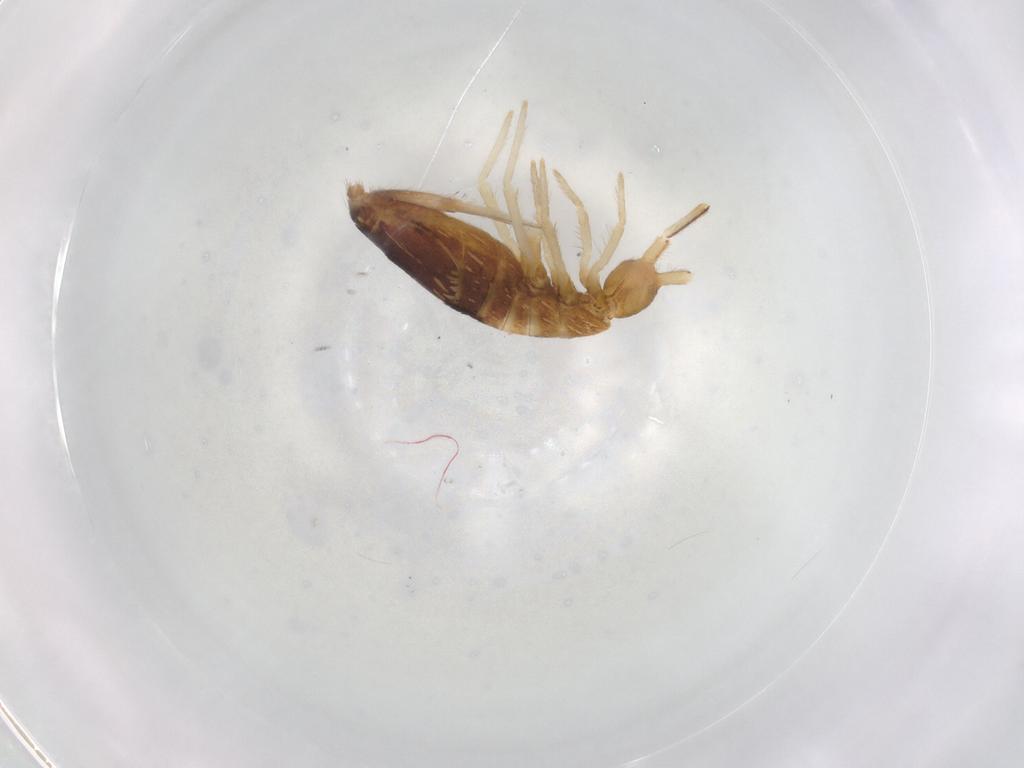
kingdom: Animalia
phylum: Arthropoda
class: Collembola
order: Entomobryomorpha
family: Entomobryidae
